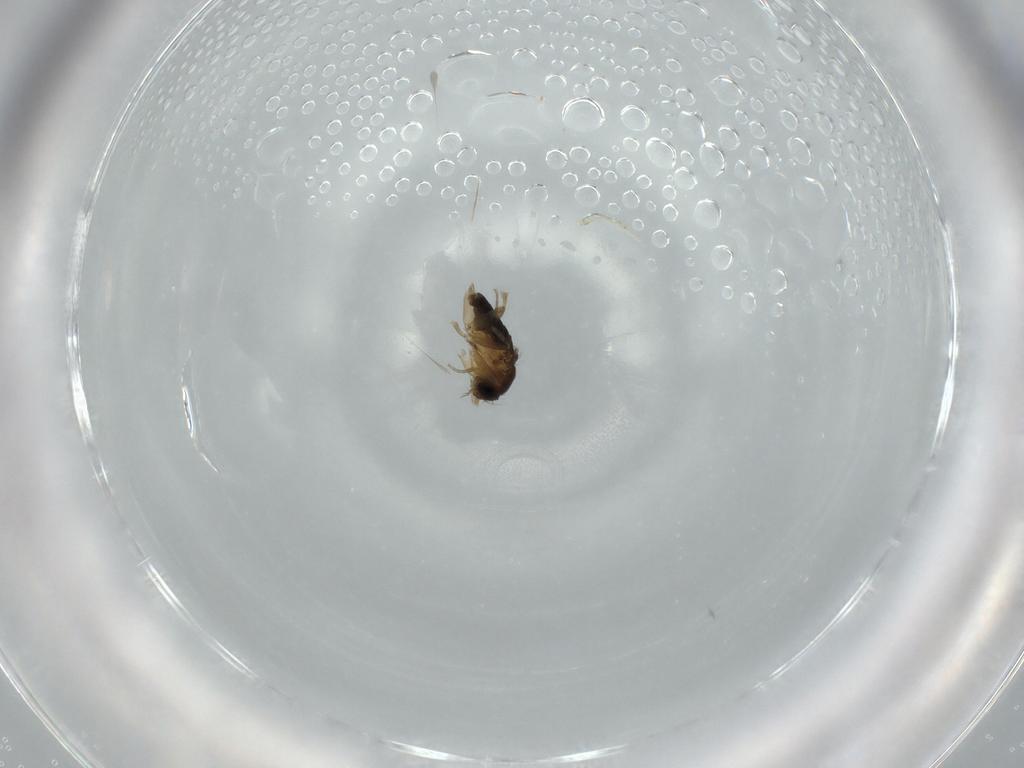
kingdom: Animalia
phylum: Arthropoda
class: Insecta
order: Diptera
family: Phoridae
